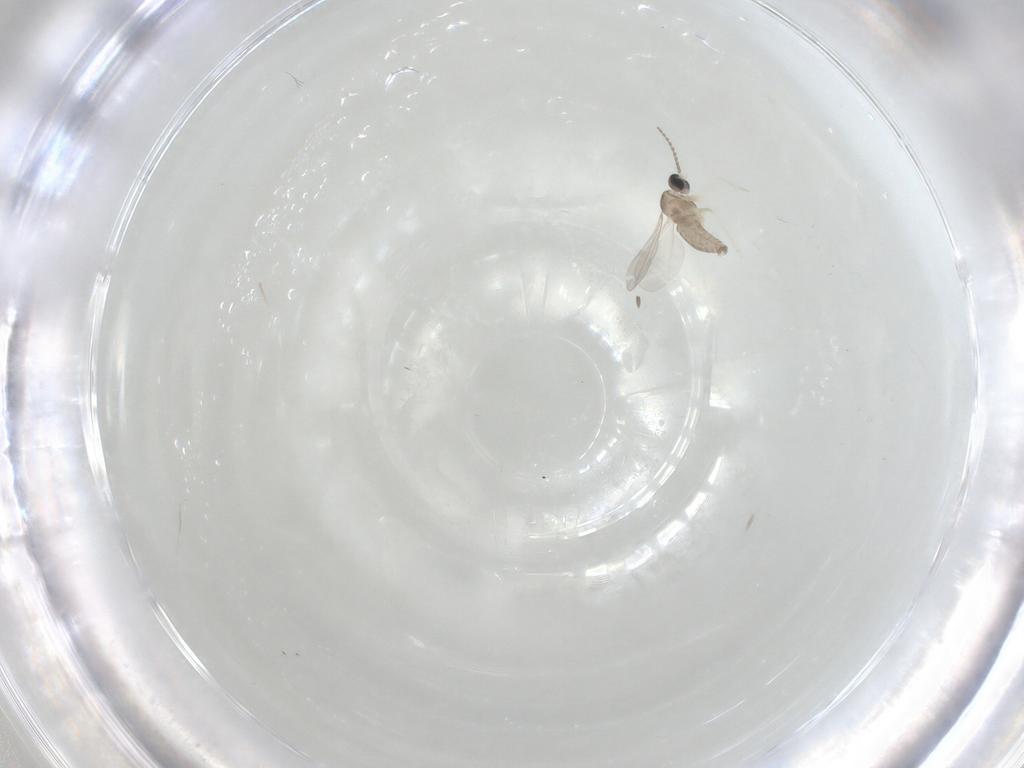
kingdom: Animalia
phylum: Arthropoda
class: Insecta
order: Diptera
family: Cecidomyiidae
